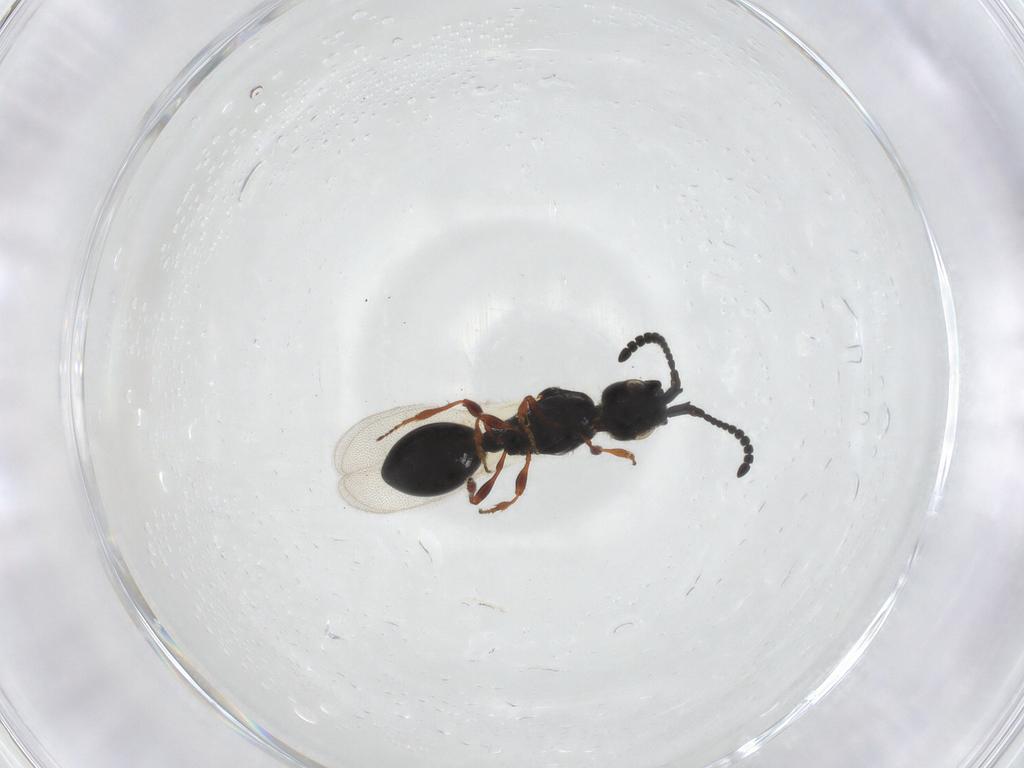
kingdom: Animalia
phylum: Arthropoda
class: Insecta
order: Hymenoptera
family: Diapriidae
